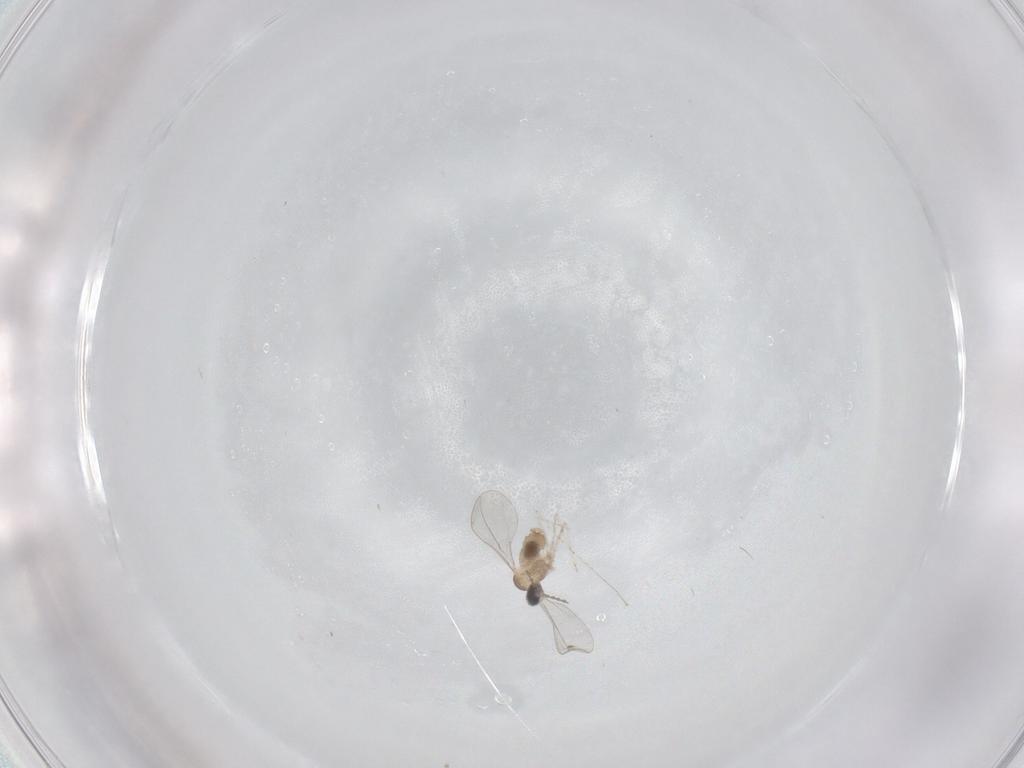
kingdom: Animalia
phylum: Arthropoda
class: Insecta
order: Diptera
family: Cecidomyiidae
